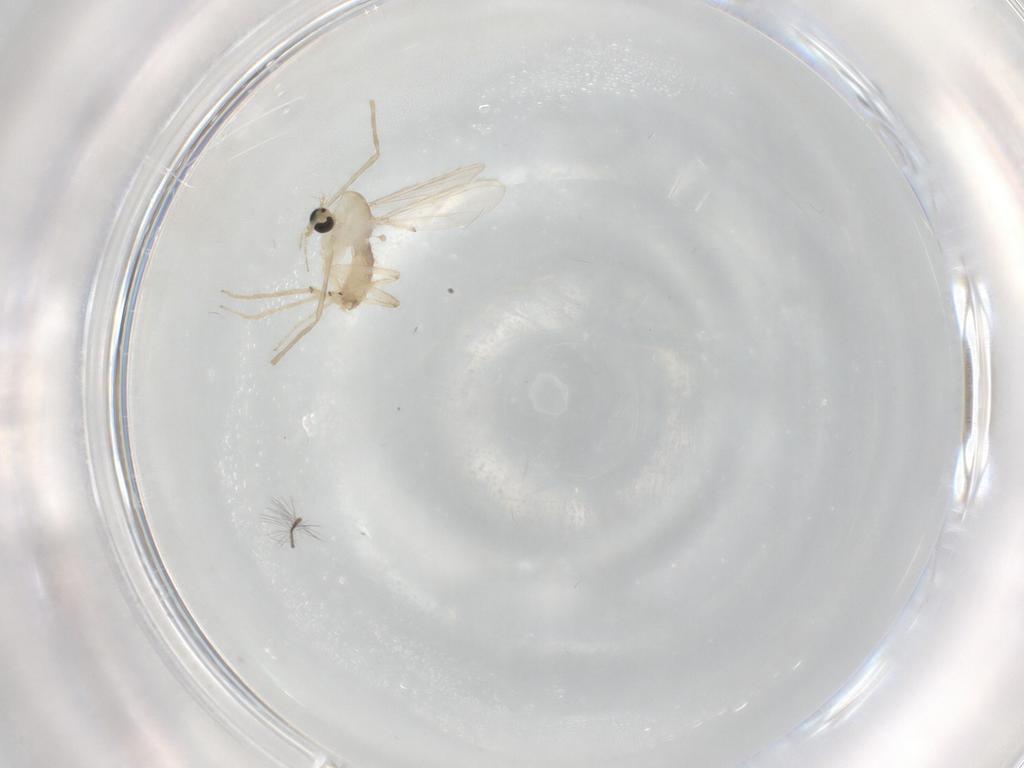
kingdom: Animalia
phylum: Arthropoda
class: Insecta
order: Diptera
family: Chironomidae
